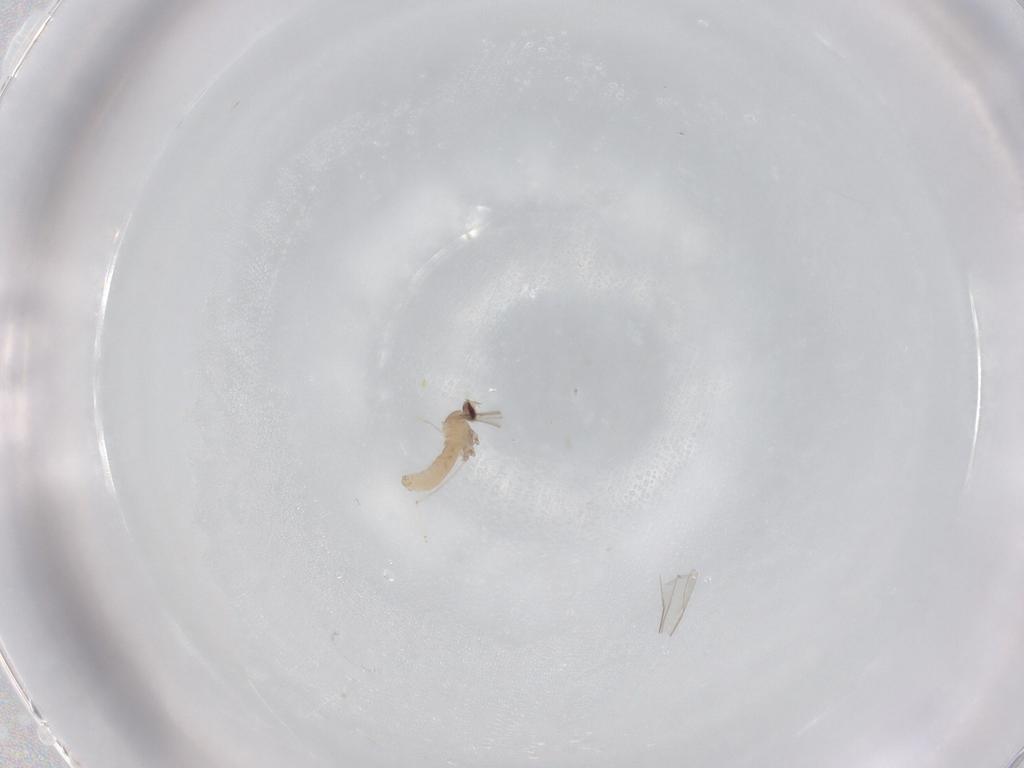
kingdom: Animalia
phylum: Arthropoda
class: Insecta
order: Diptera
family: Cecidomyiidae
